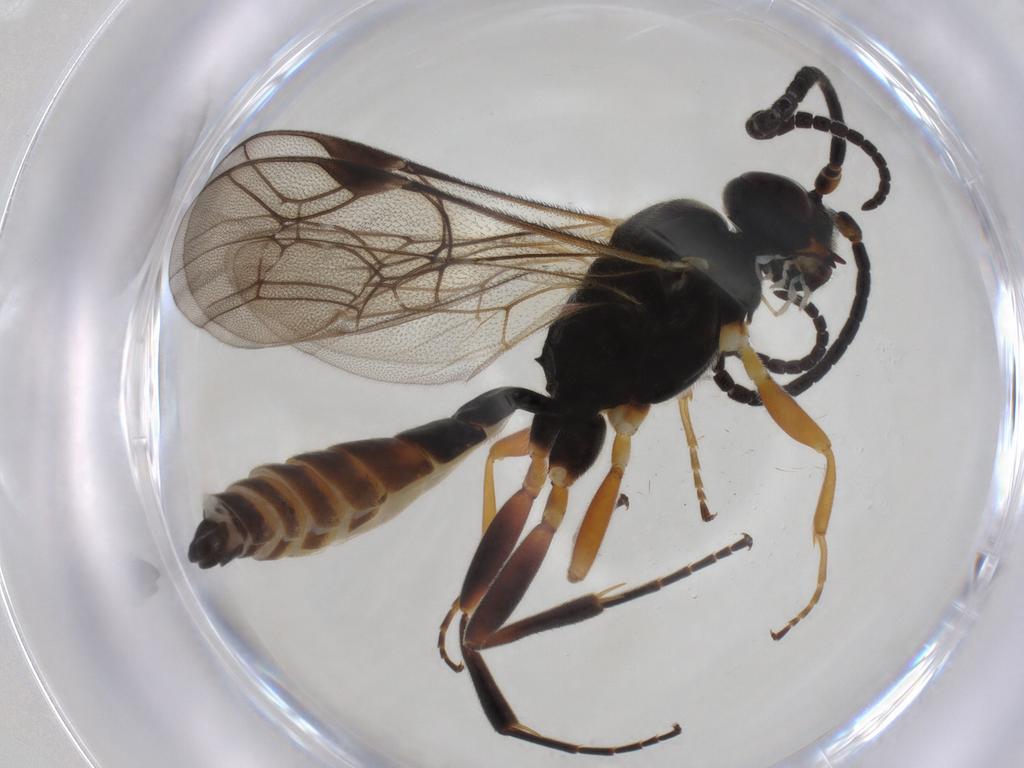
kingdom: Animalia
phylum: Arthropoda
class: Insecta
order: Hymenoptera
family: Ichneumonidae
